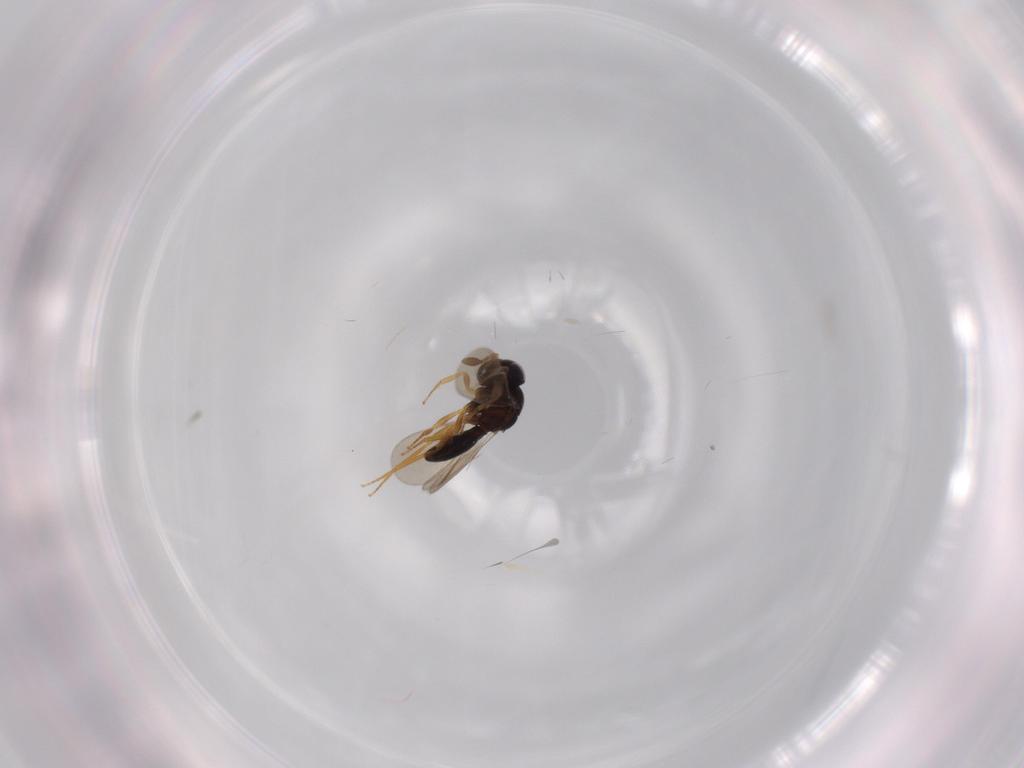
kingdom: Animalia
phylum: Arthropoda
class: Insecta
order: Hymenoptera
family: Scelionidae
